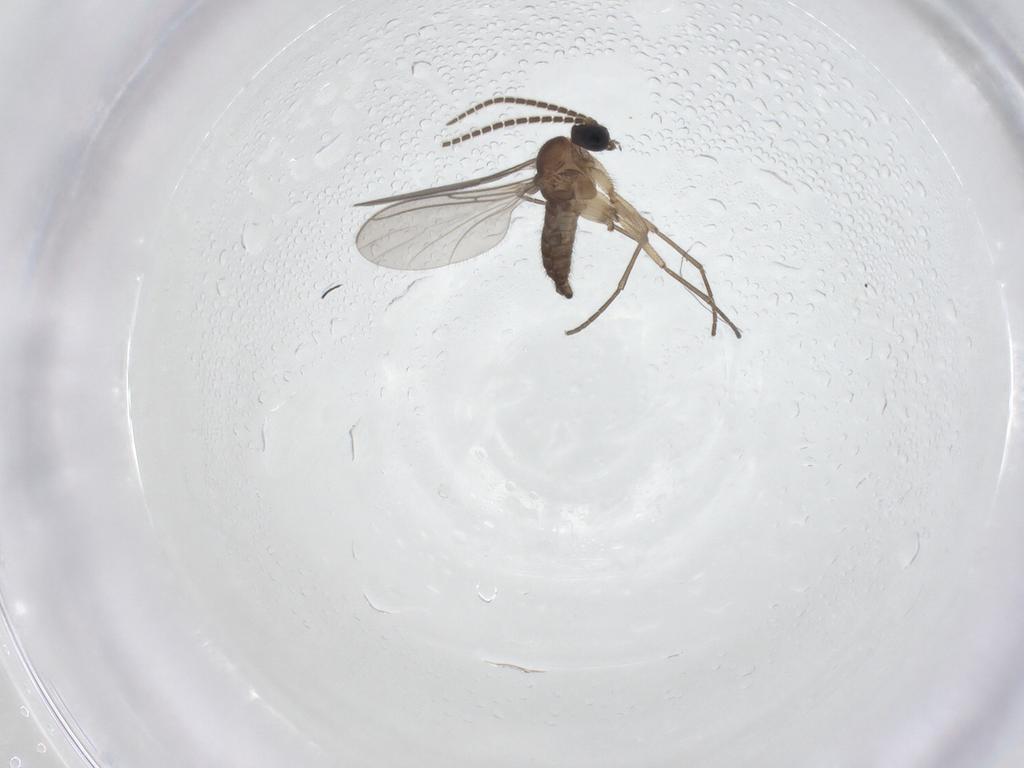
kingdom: Animalia
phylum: Arthropoda
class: Insecta
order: Diptera
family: Sciaridae
